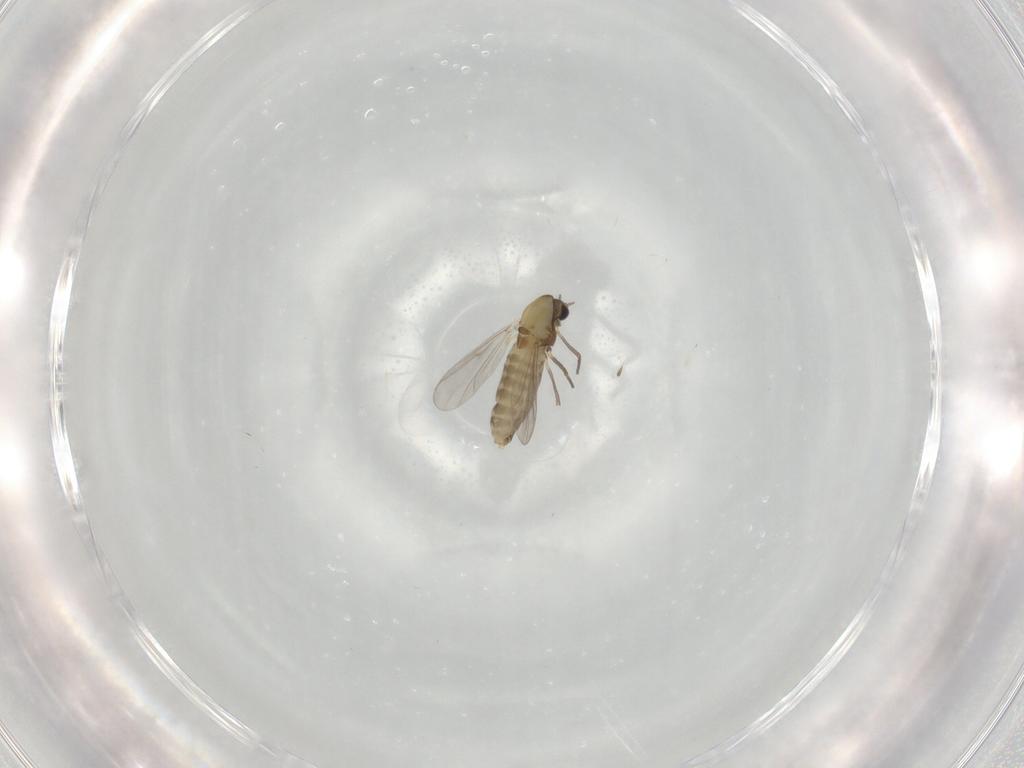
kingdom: Animalia
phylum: Arthropoda
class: Insecta
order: Diptera
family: Chironomidae
